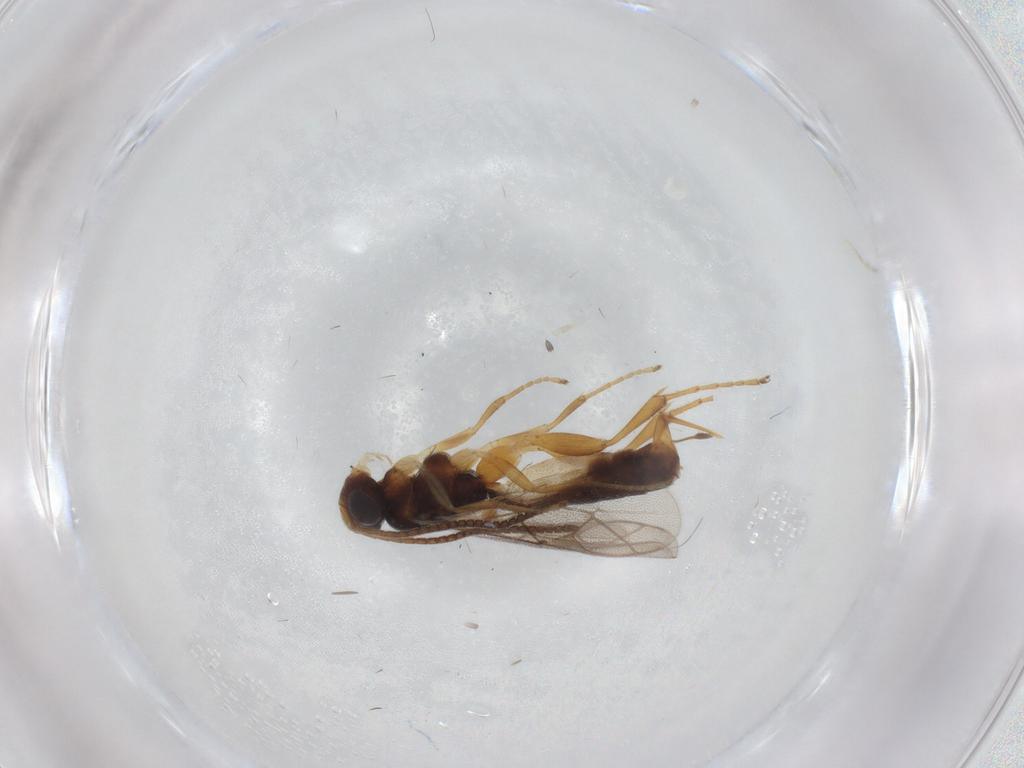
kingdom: Animalia
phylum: Arthropoda
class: Insecta
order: Hymenoptera
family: Ichneumonidae
